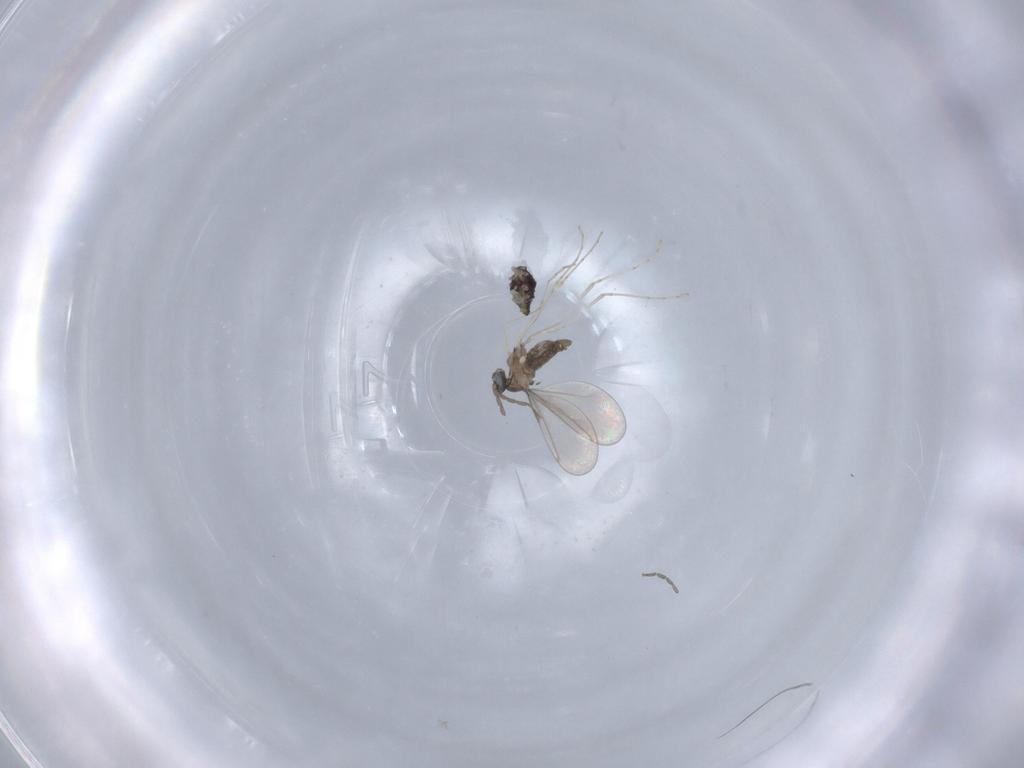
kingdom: Animalia
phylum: Arthropoda
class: Insecta
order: Diptera
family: Cecidomyiidae
